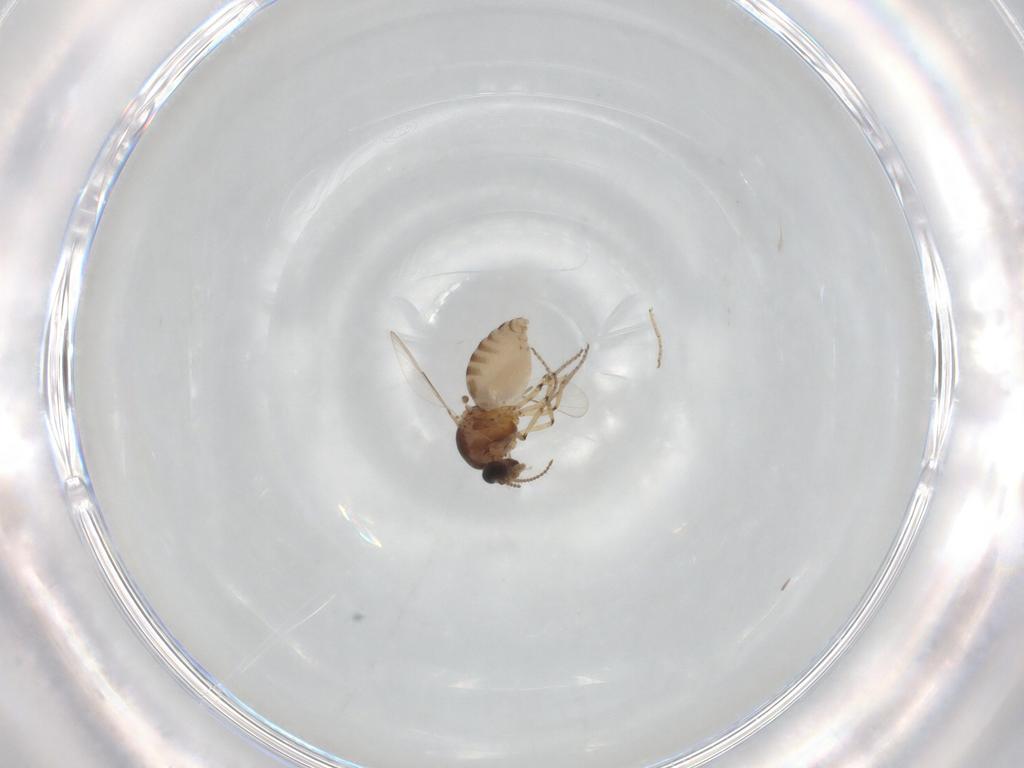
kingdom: Animalia
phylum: Arthropoda
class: Insecta
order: Diptera
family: Ceratopogonidae
